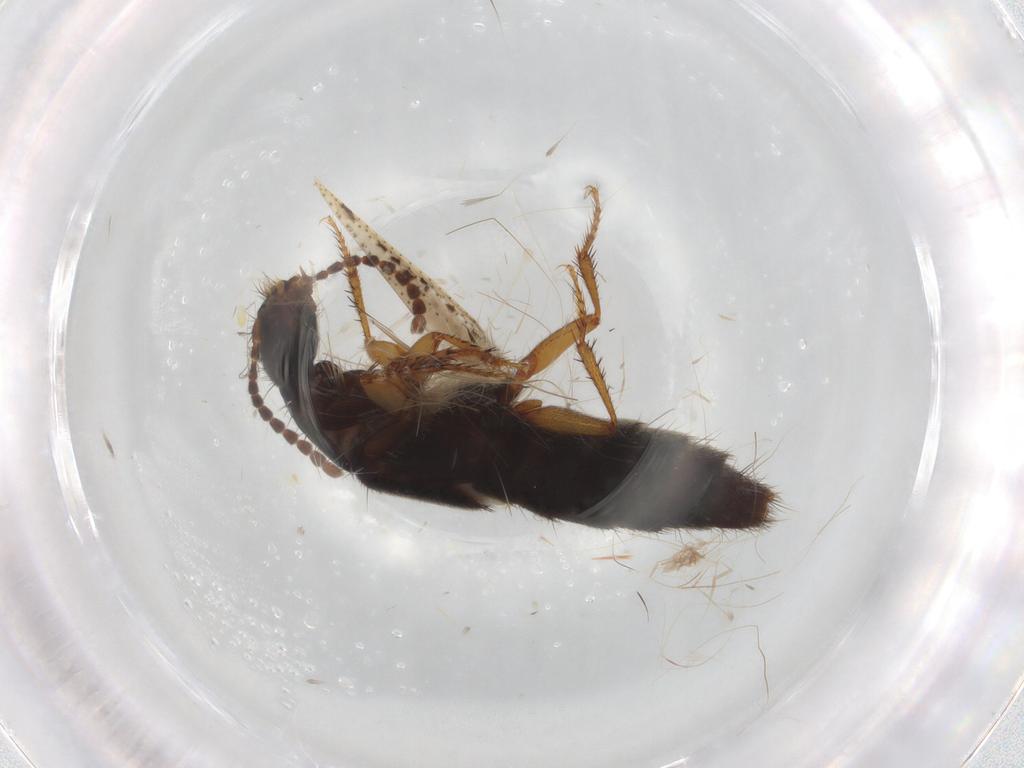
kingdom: Animalia
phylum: Arthropoda
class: Insecta
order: Coleoptera
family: Staphylinidae
